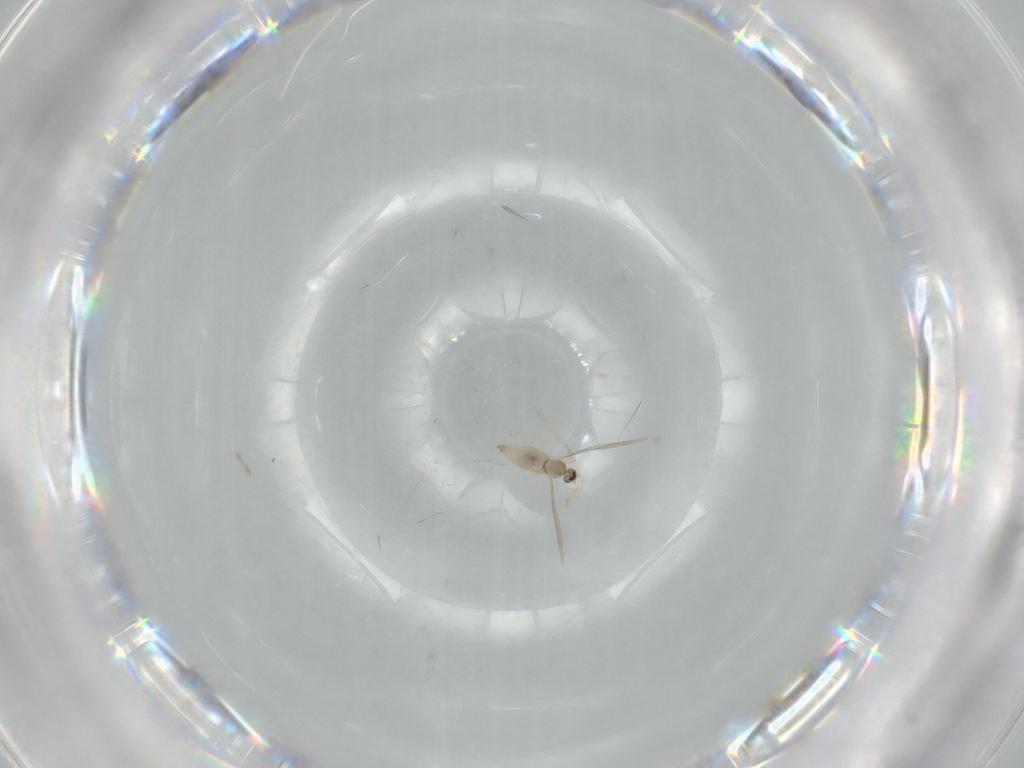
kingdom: Animalia
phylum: Arthropoda
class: Insecta
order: Diptera
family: Cecidomyiidae
